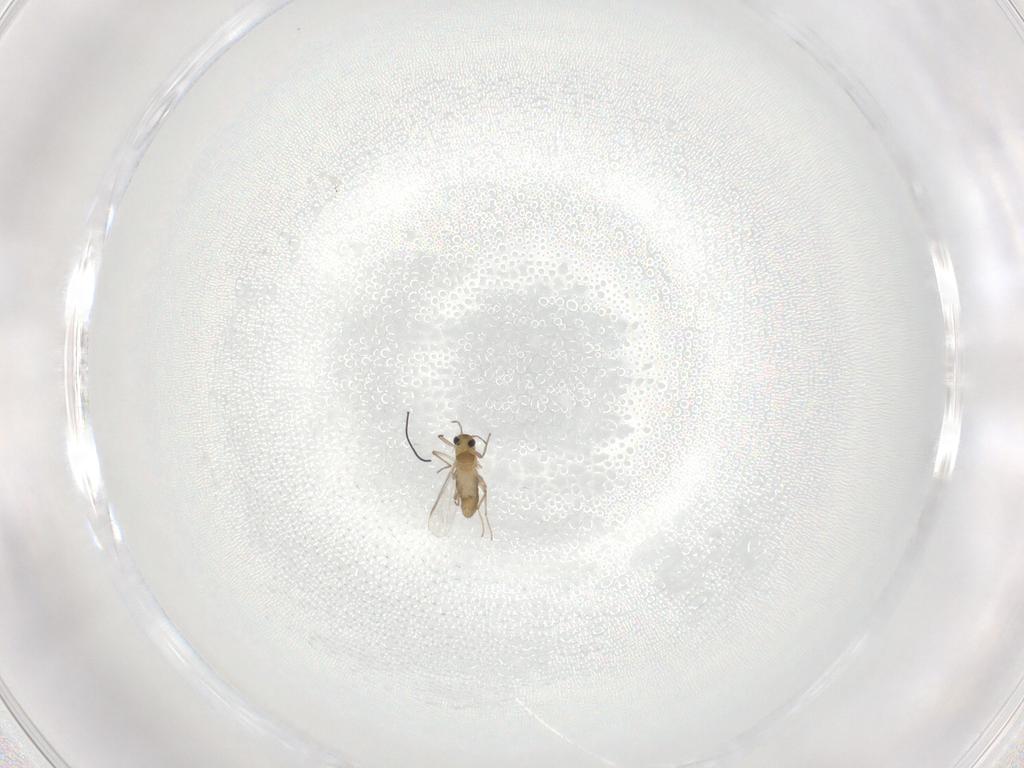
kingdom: Animalia
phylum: Arthropoda
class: Insecta
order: Diptera
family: Chironomidae
